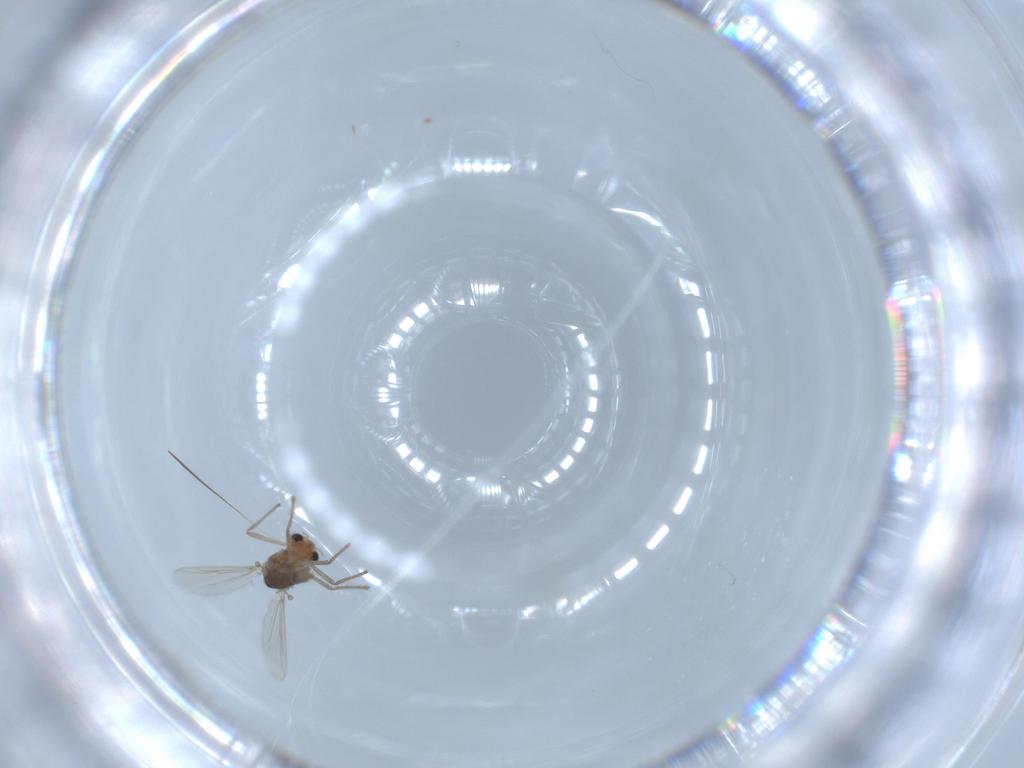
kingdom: Animalia
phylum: Arthropoda
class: Insecta
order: Diptera
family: Chironomidae
